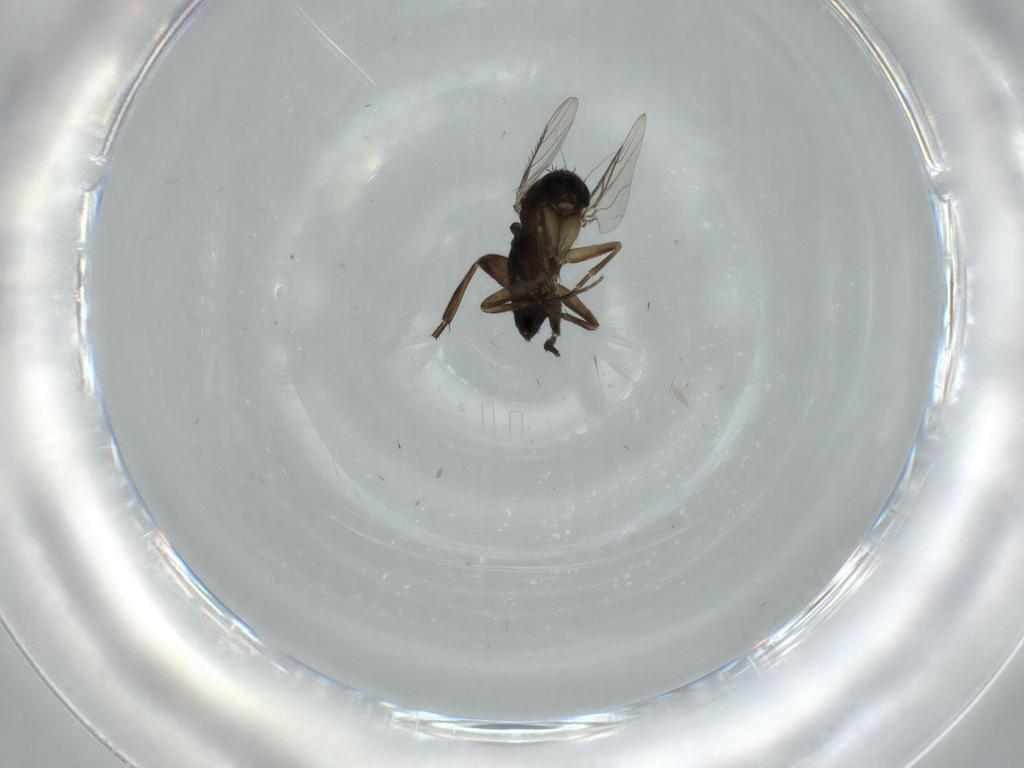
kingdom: Animalia
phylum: Arthropoda
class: Insecta
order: Diptera
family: Phoridae
